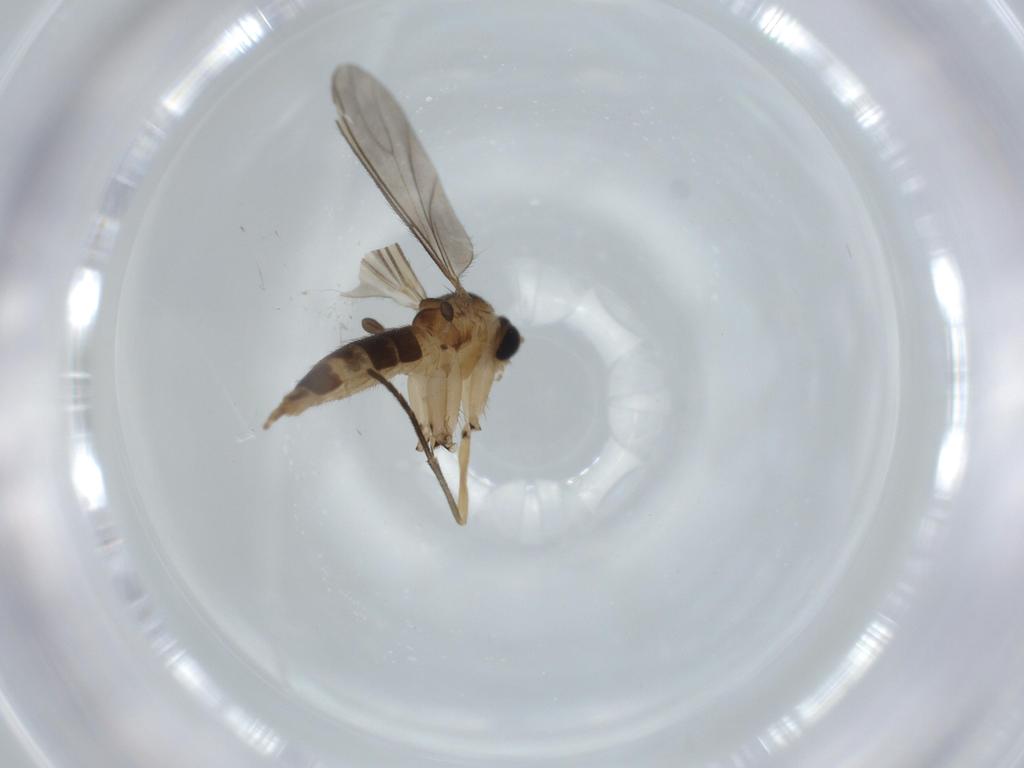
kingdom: Animalia
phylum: Arthropoda
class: Insecta
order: Diptera
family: Sciaridae
